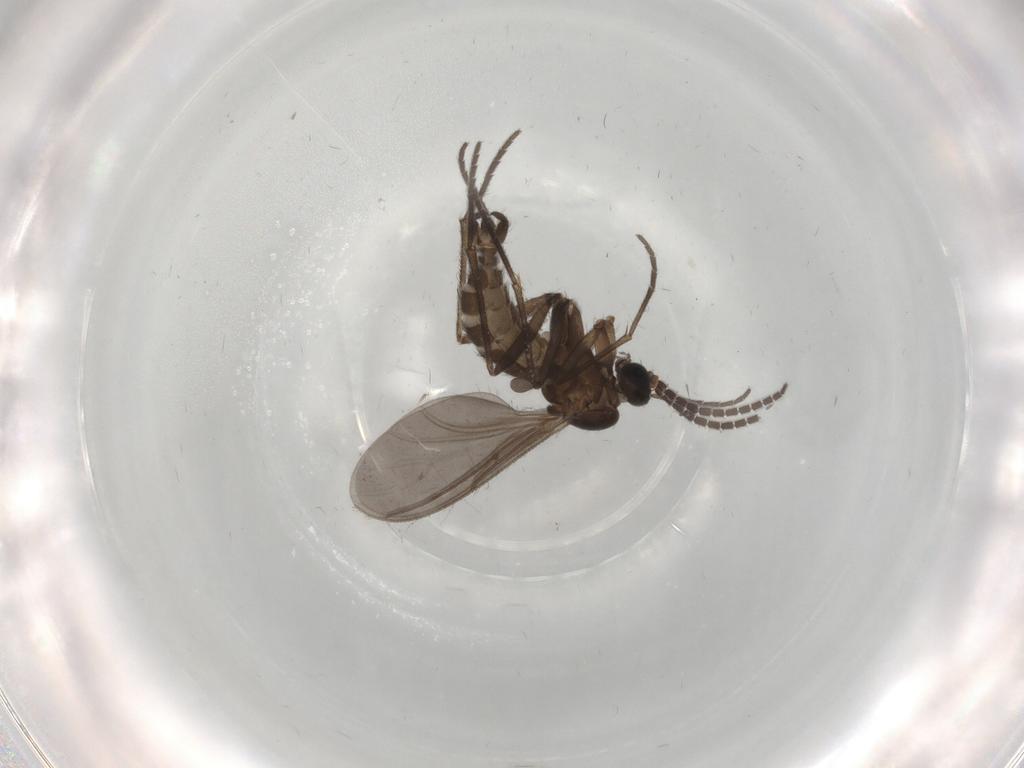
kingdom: Animalia
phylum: Arthropoda
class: Insecta
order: Diptera
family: Sciaridae
